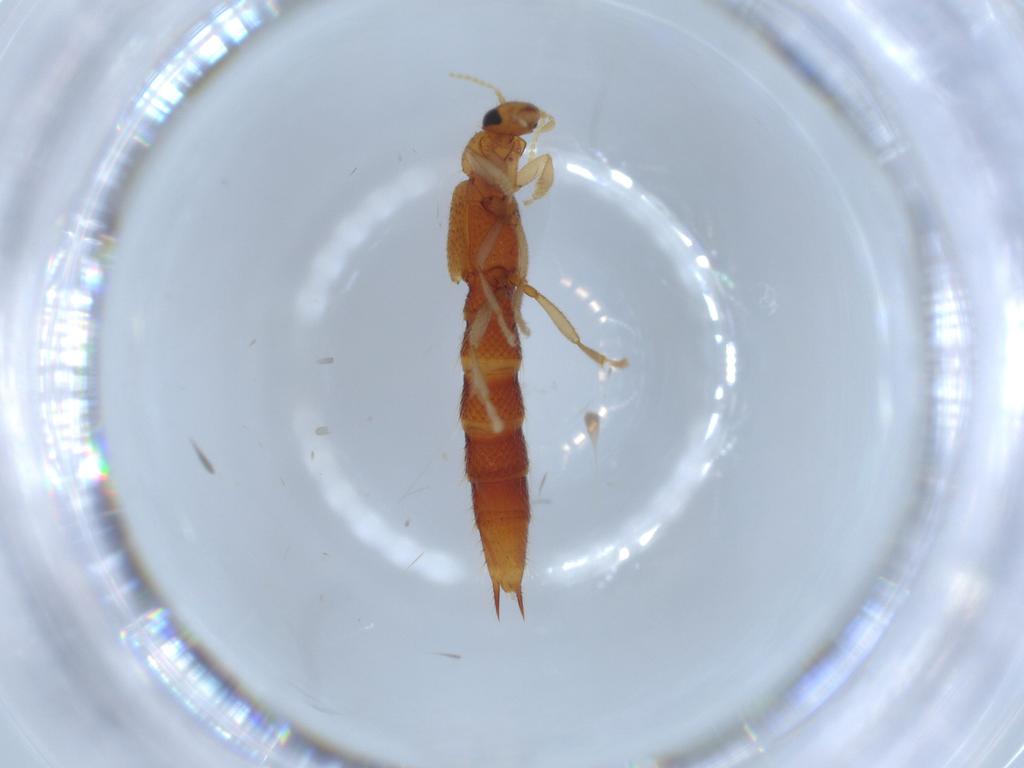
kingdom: Animalia
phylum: Arthropoda
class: Insecta
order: Coleoptera
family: Staphylinidae
